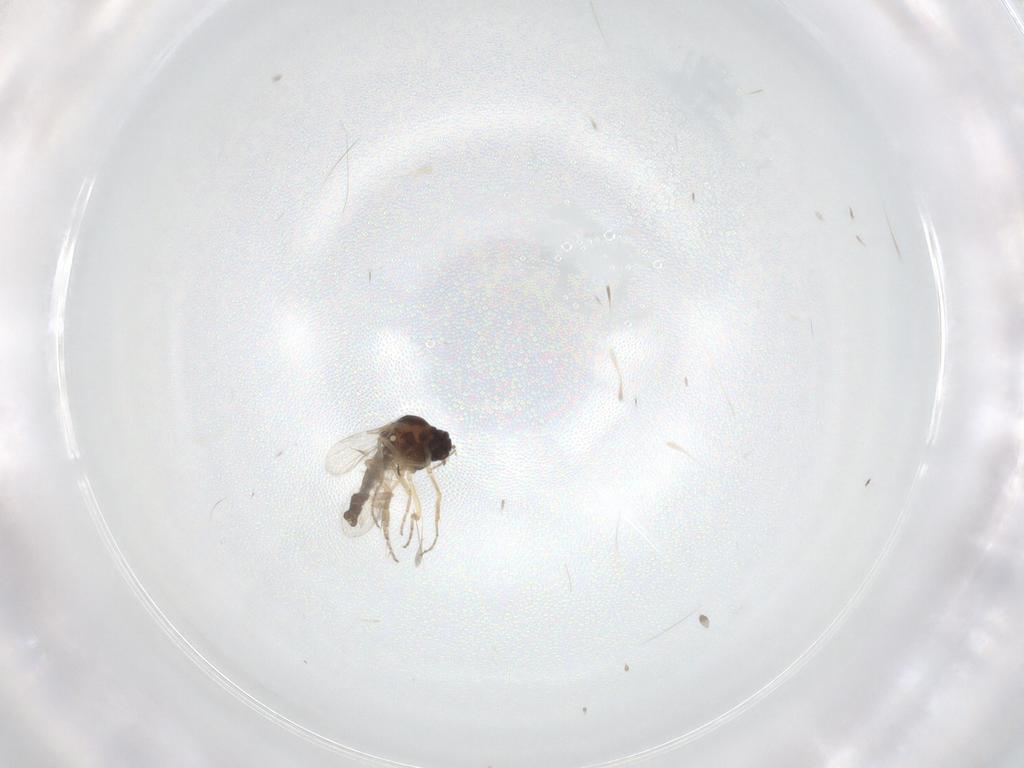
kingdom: Animalia
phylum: Arthropoda
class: Insecta
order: Diptera
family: Ceratopogonidae
